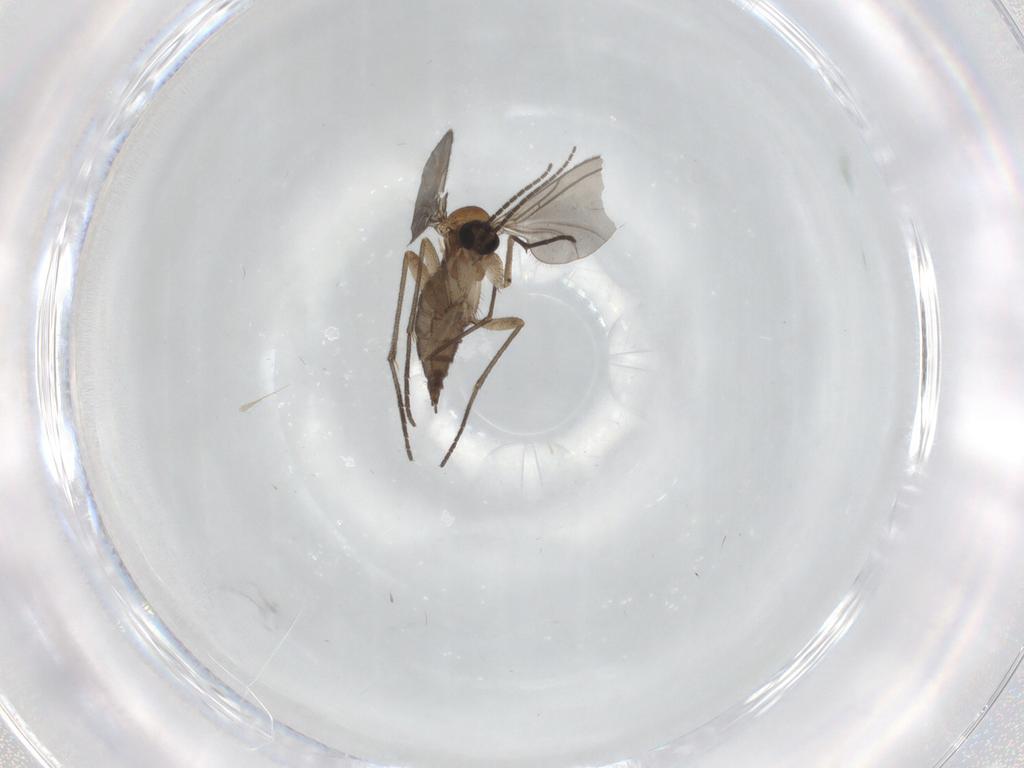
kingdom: Animalia
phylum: Arthropoda
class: Insecta
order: Diptera
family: Sciaridae
